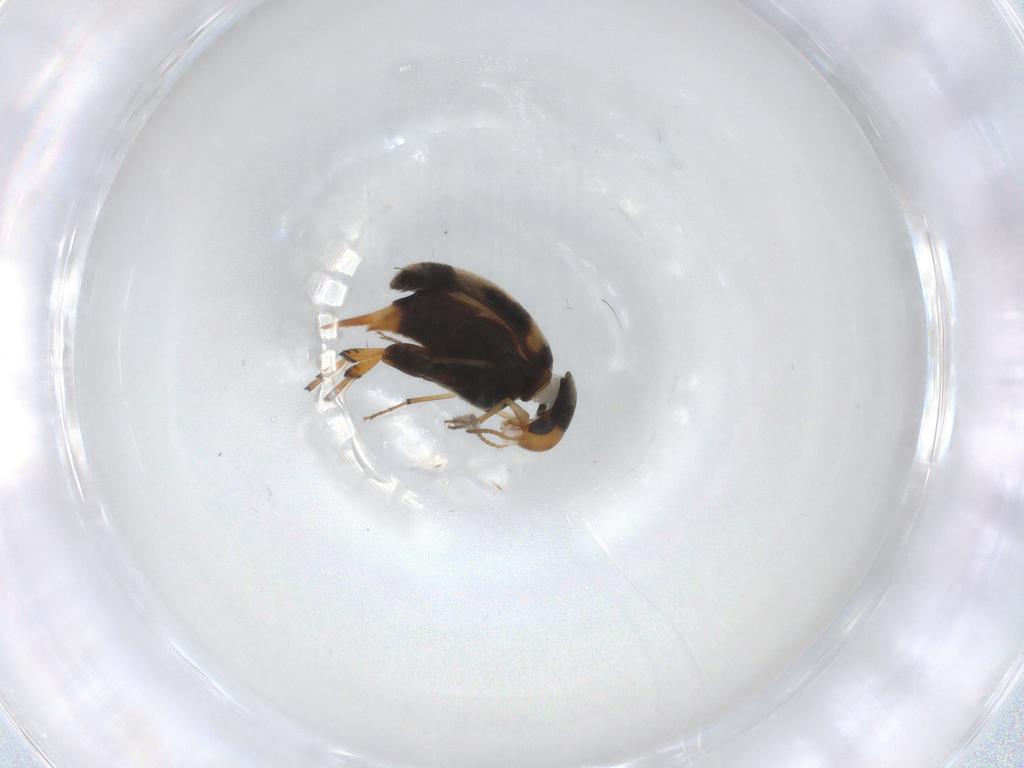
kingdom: Animalia
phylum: Arthropoda
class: Insecta
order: Coleoptera
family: Mordellidae
